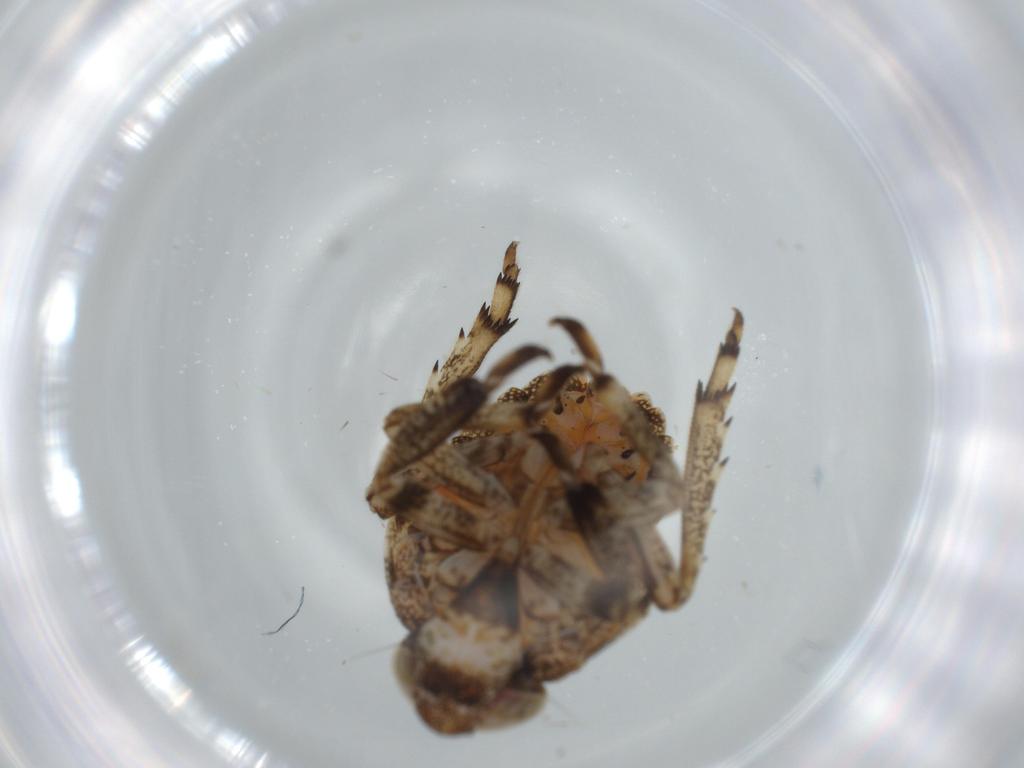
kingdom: Animalia
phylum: Arthropoda
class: Insecta
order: Hemiptera
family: Issidae
